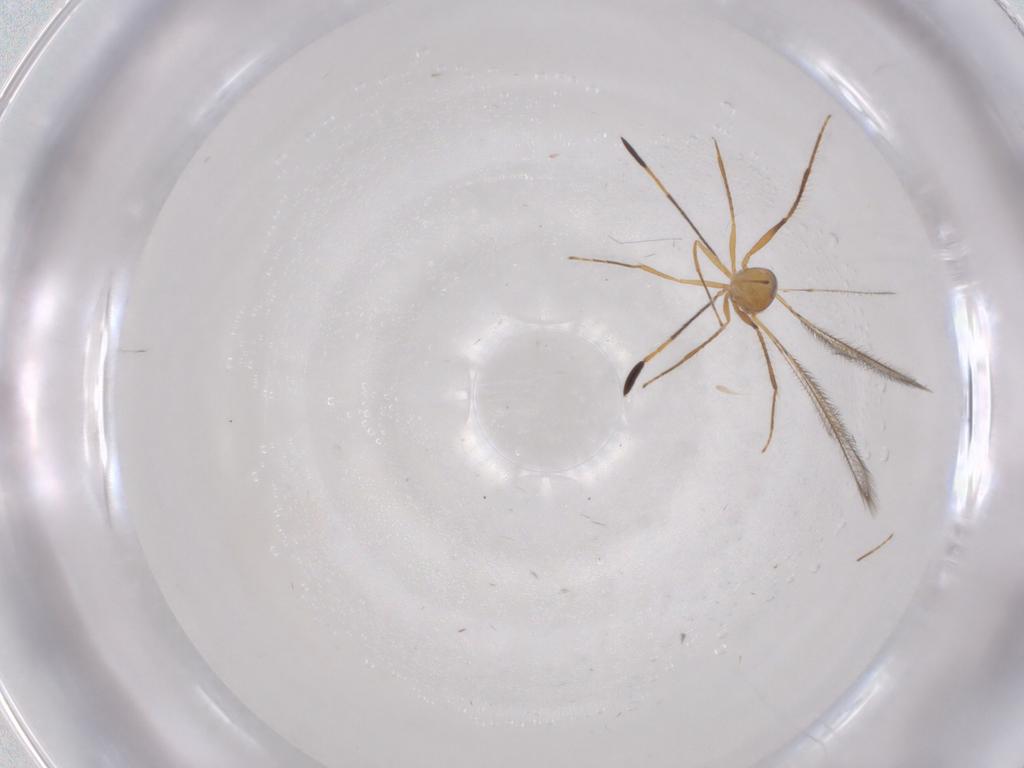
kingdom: Animalia
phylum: Arthropoda
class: Insecta
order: Hymenoptera
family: Mymaridae
